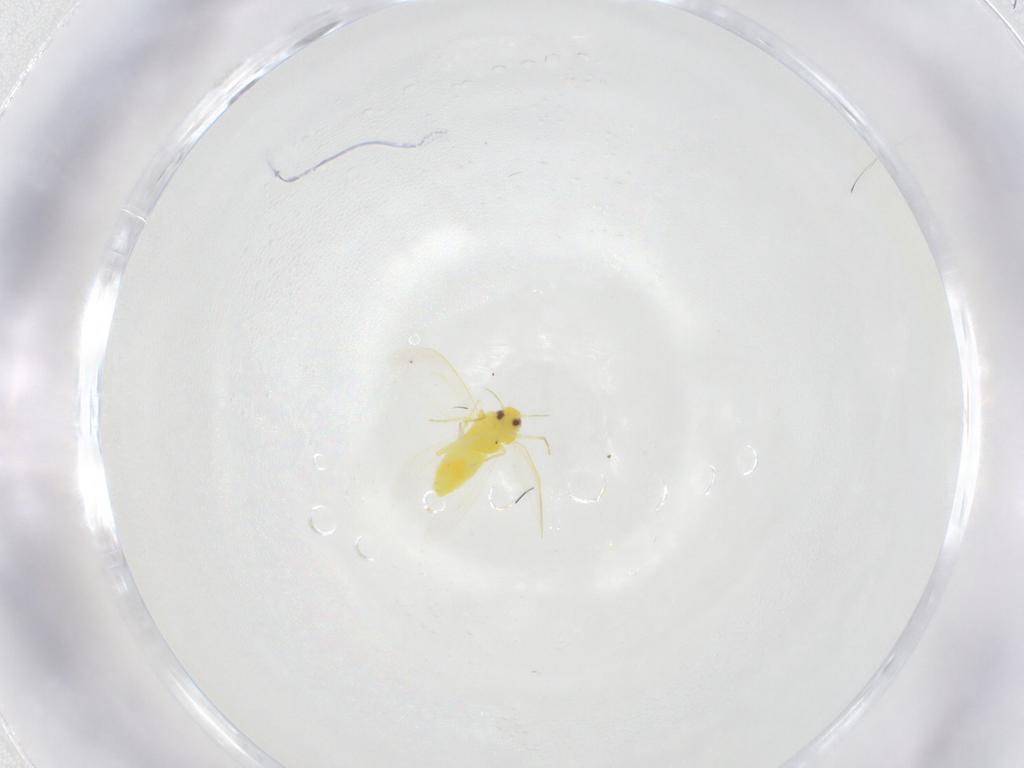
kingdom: Animalia
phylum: Arthropoda
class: Insecta
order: Hemiptera
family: Aleyrodidae
